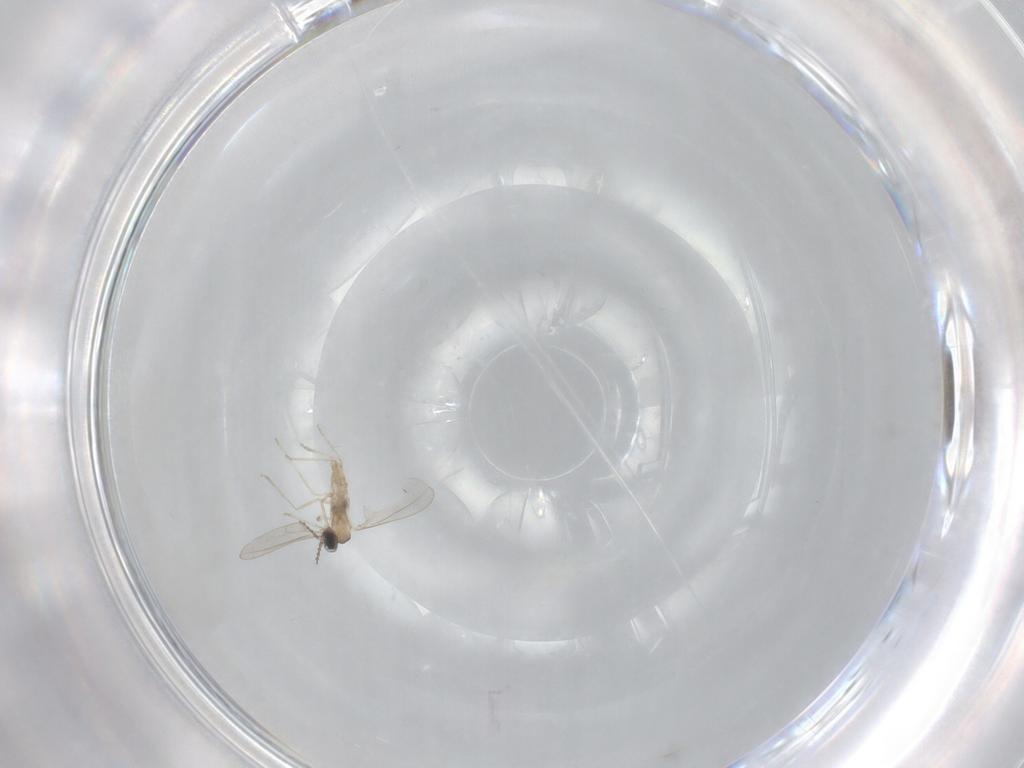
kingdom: Animalia
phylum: Arthropoda
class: Insecta
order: Diptera
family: Cecidomyiidae
